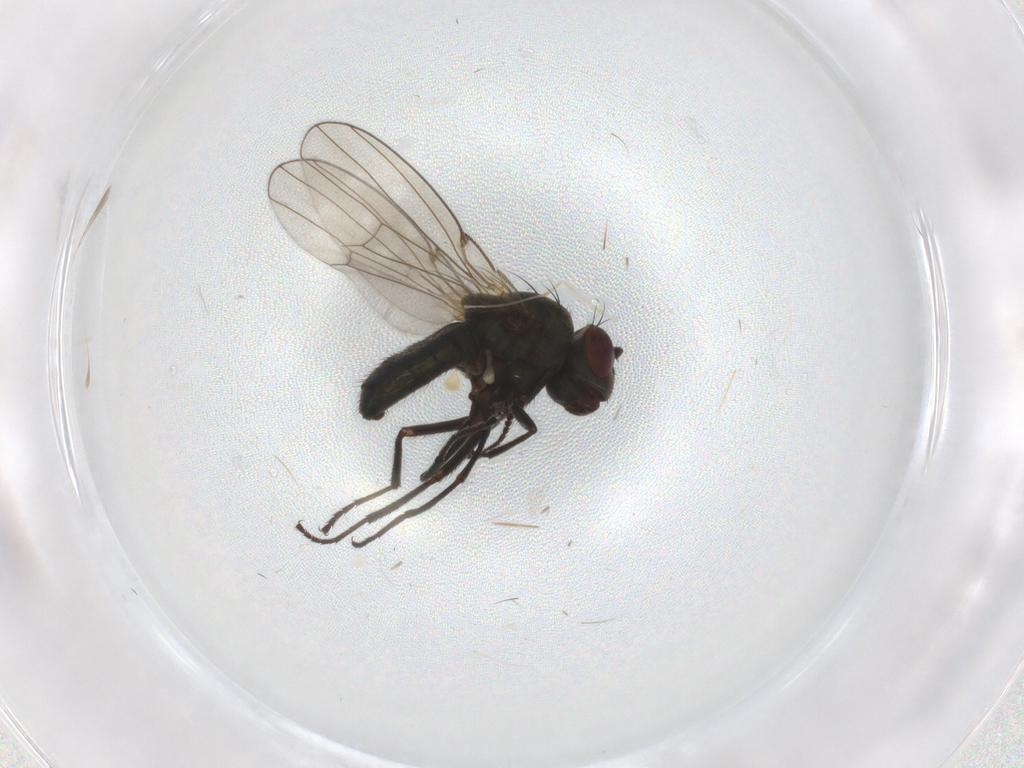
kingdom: Animalia
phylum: Arthropoda
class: Insecta
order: Diptera
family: Ephydridae
